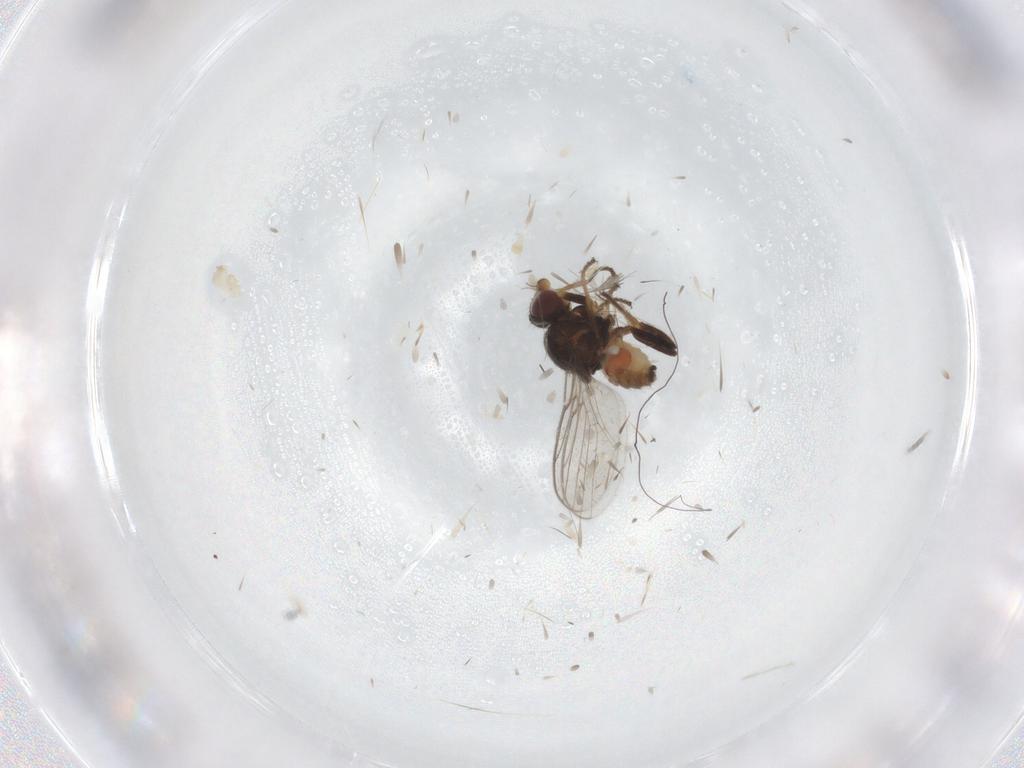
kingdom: Animalia
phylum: Arthropoda
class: Insecta
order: Diptera
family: Chloropidae
